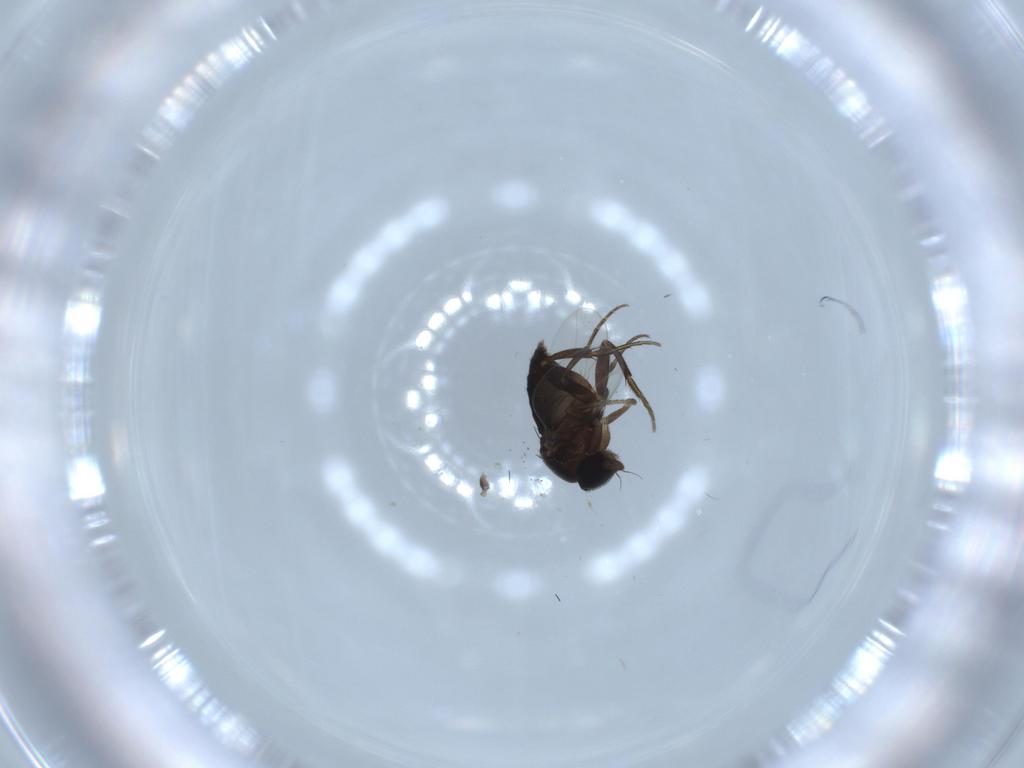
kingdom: Animalia
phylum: Arthropoda
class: Insecta
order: Diptera
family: Phoridae
